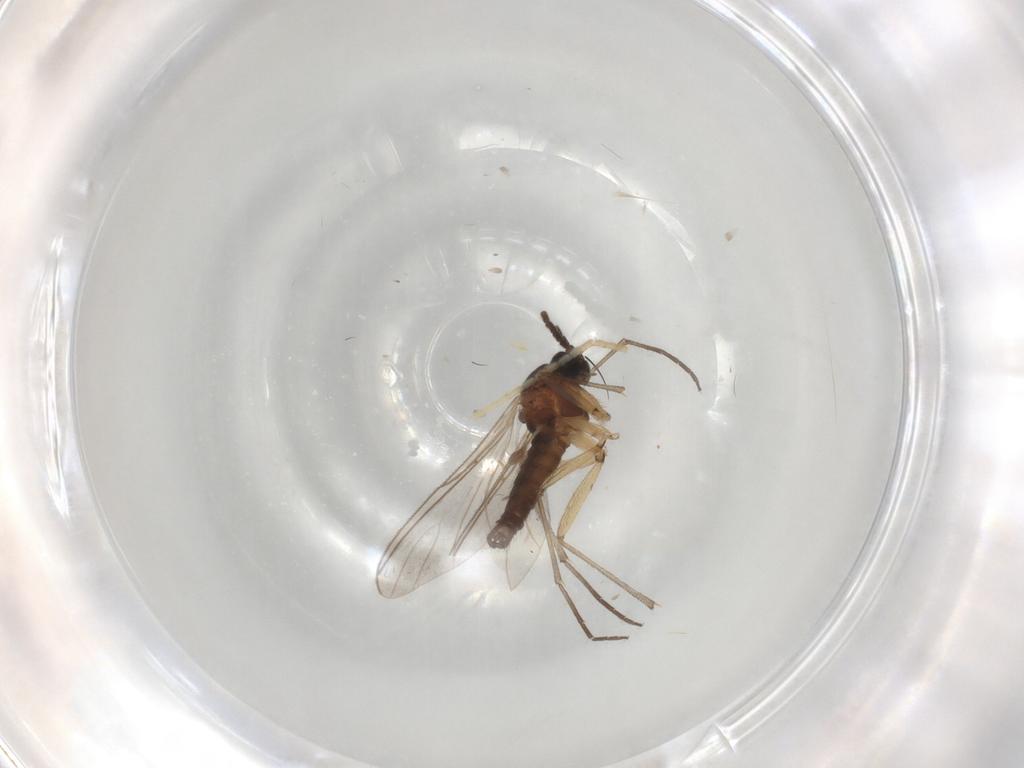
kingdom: Animalia
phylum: Arthropoda
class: Insecta
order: Diptera
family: Sciaridae
